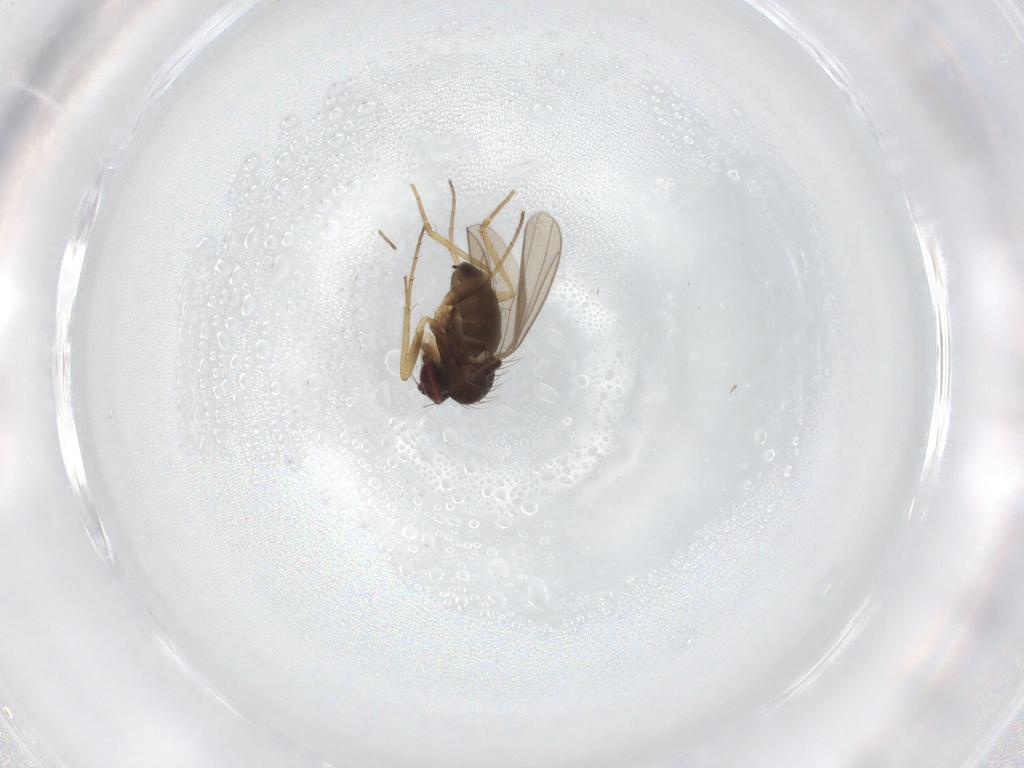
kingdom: Animalia
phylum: Arthropoda
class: Insecta
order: Diptera
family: Dolichopodidae
